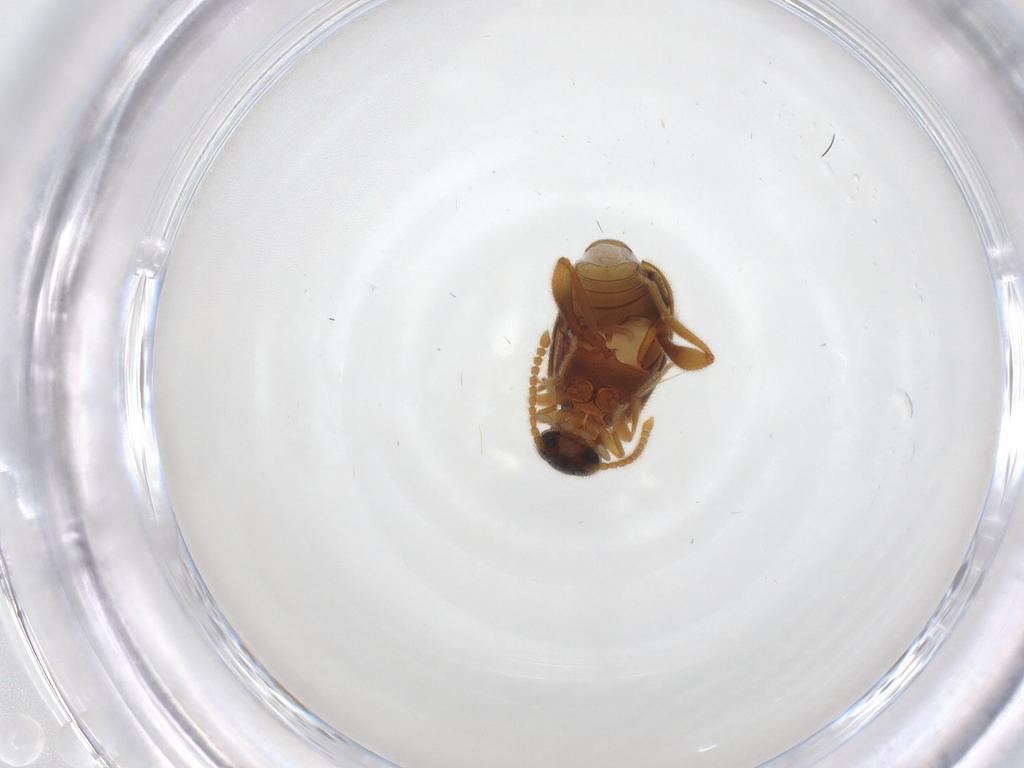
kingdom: Animalia
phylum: Arthropoda
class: Insecta
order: Coleoptera
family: Aderidae
